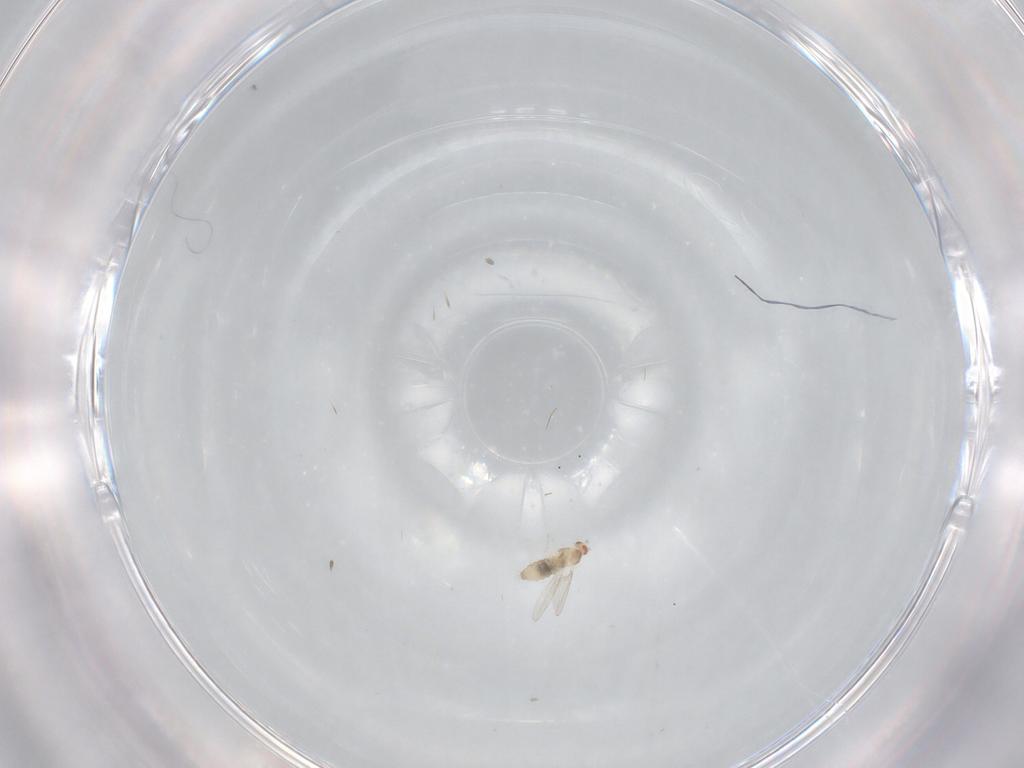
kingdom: Animalia
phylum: Arthropoda
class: Insecta
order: Diptera
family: Cecidomyiidae
